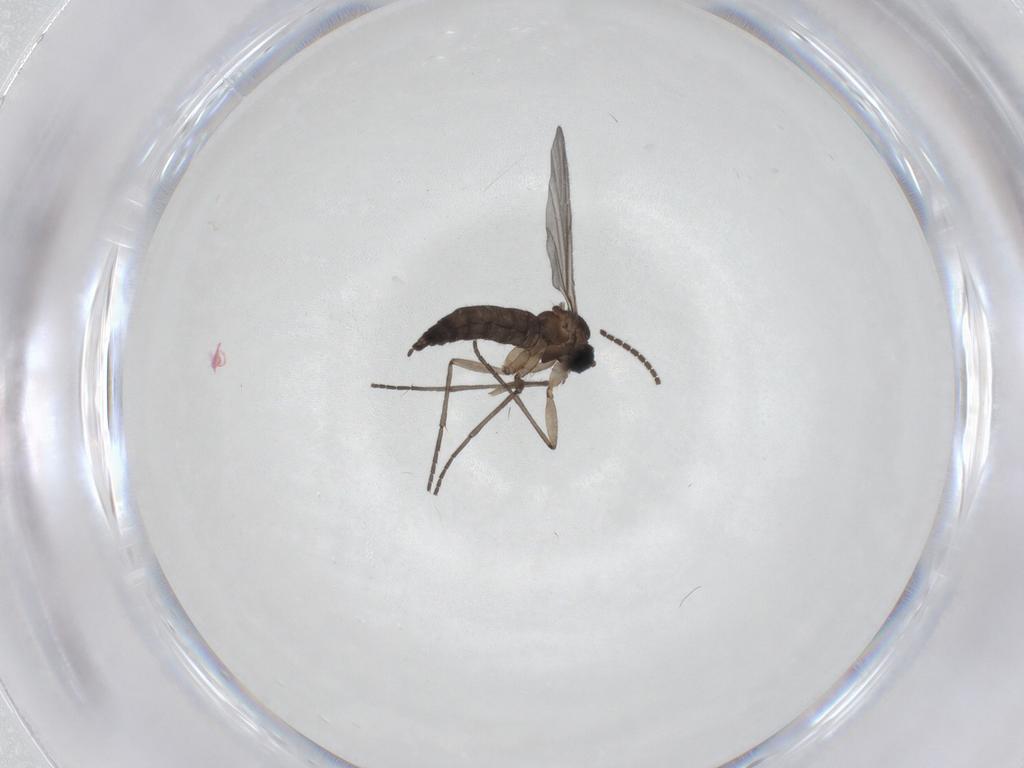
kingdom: Animalia
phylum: Arthropoda
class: Insecta
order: Diptera
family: Sciaridae
